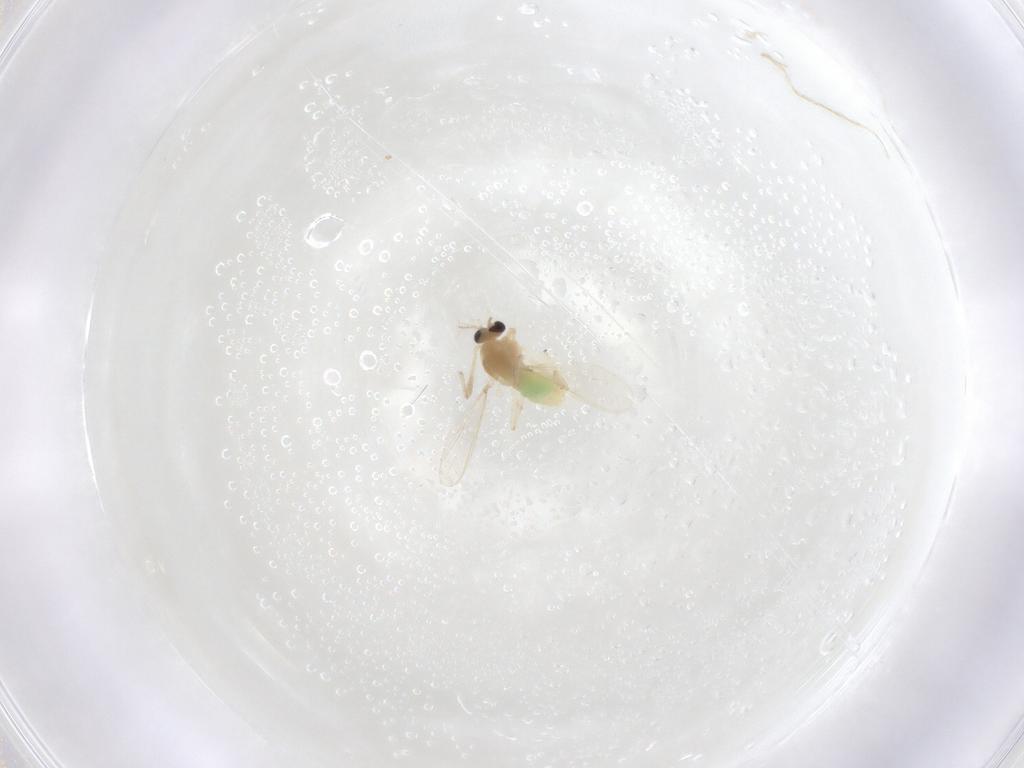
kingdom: Animalia
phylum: Arthropoda
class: Insecta
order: Diptera
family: Chironomidae
